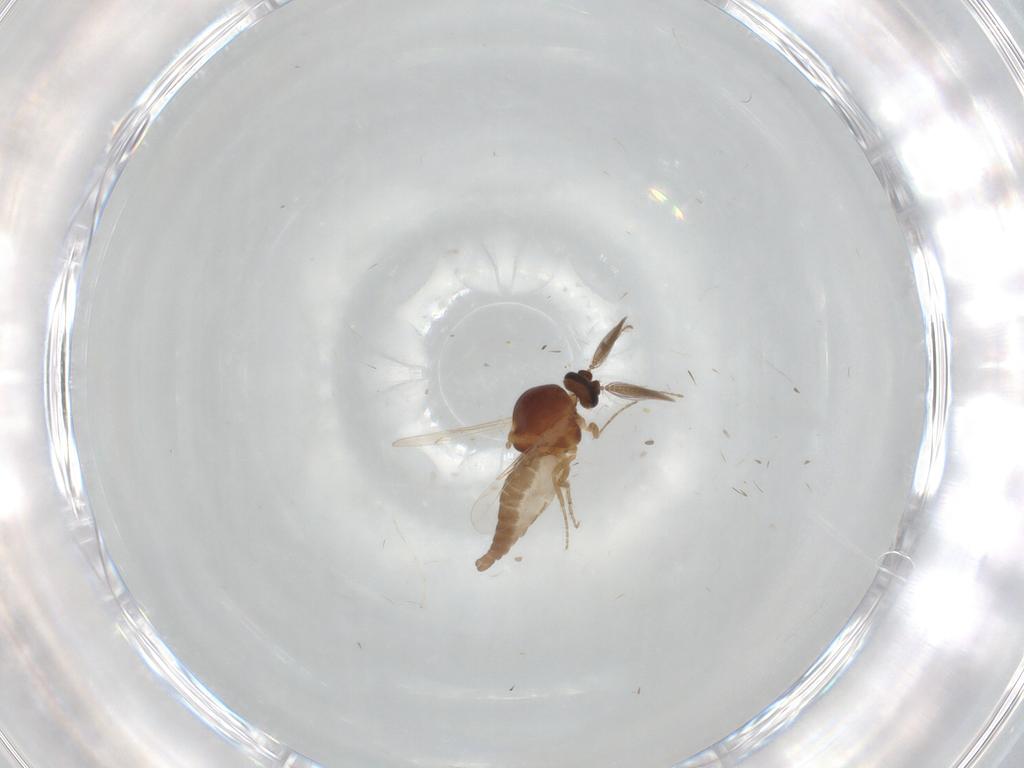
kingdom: Animalia
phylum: Arthropoda
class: Insecta
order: Diptera
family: Ceratopogonidae
